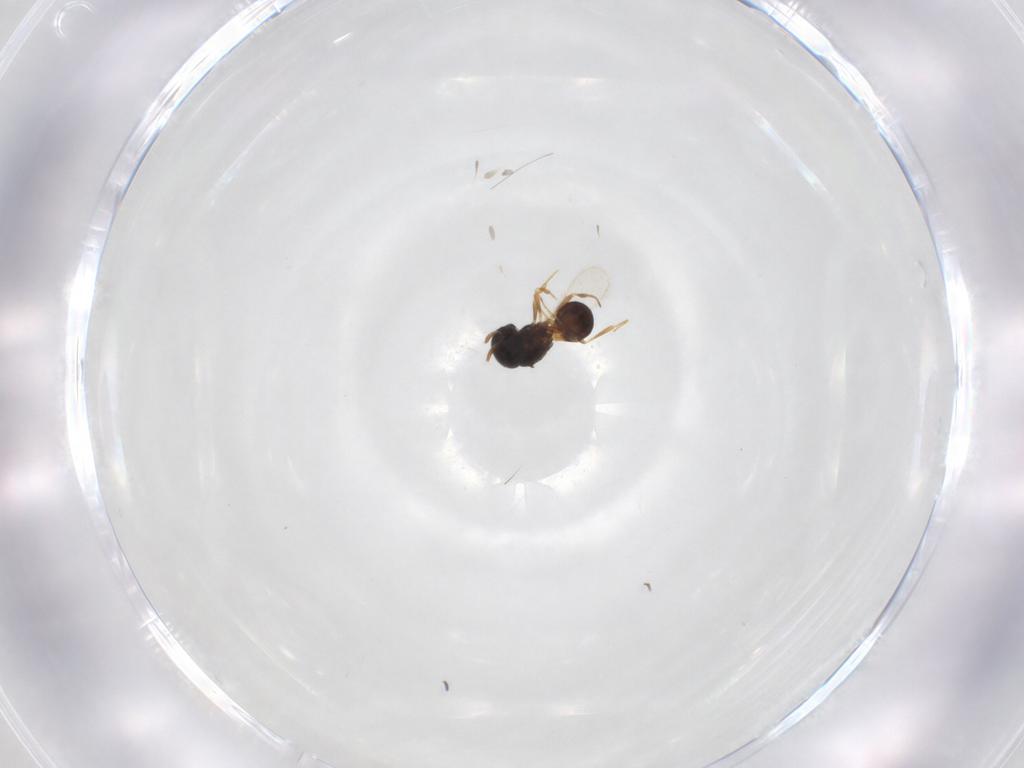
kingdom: Animalia
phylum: Arthropoda
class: Insecta
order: Hymenoptera
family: Scelionidae
